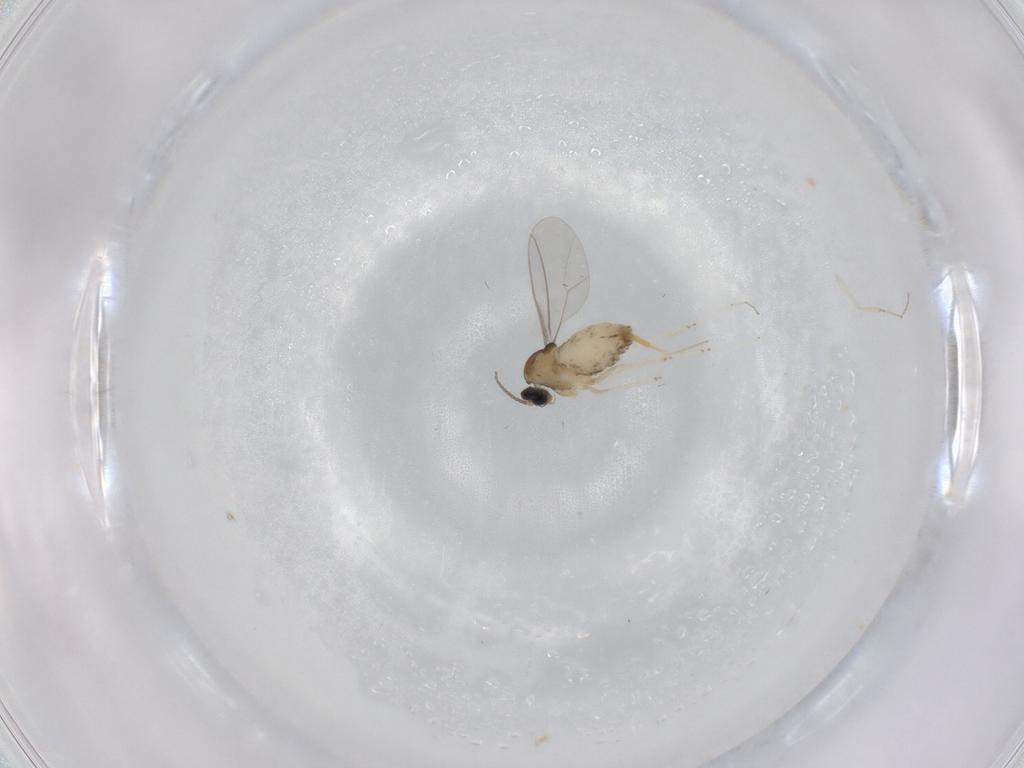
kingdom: Animalia
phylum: Arthropoda
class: Insecta
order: Diptera
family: Cecidomyiidae
